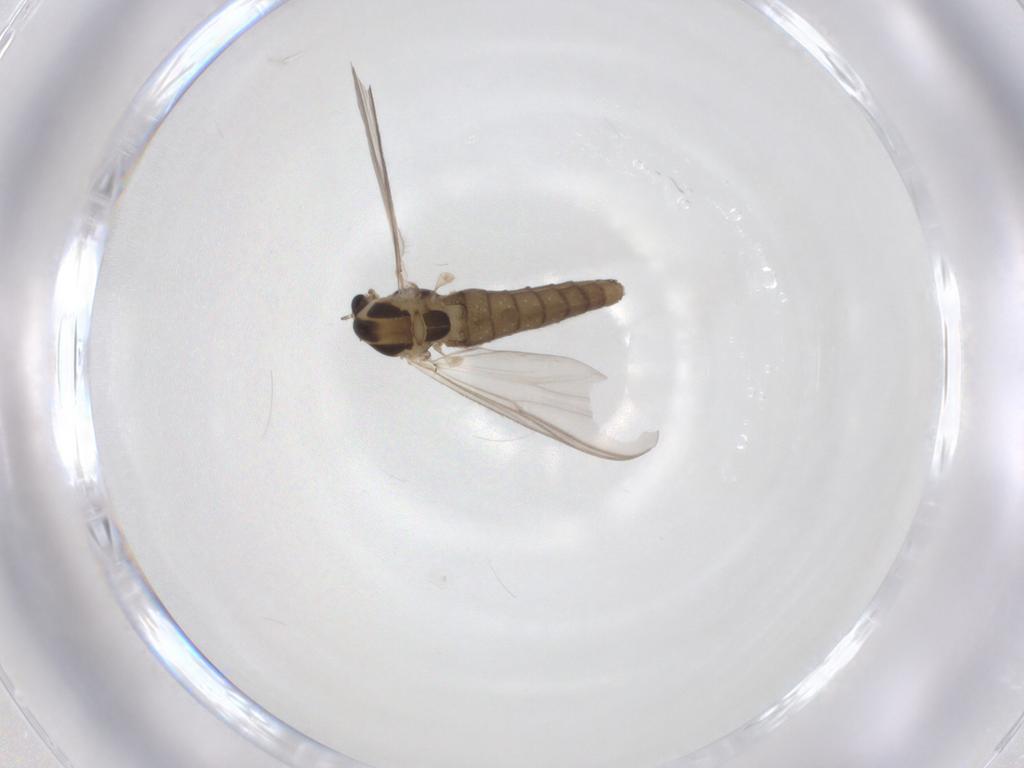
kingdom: Animalia
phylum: Arthropoda
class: Insecta
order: Diptera
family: Chironomidae
